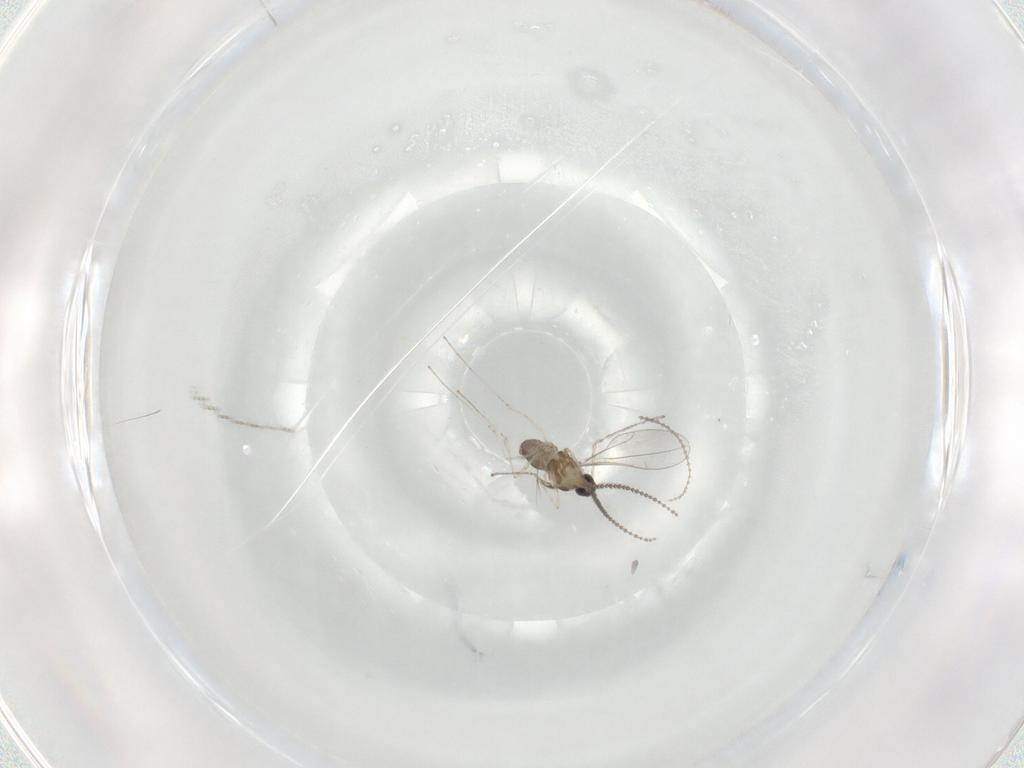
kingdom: Animalia
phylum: Arthropoda
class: Insecta
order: Diptera
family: Cecidomyiidae
